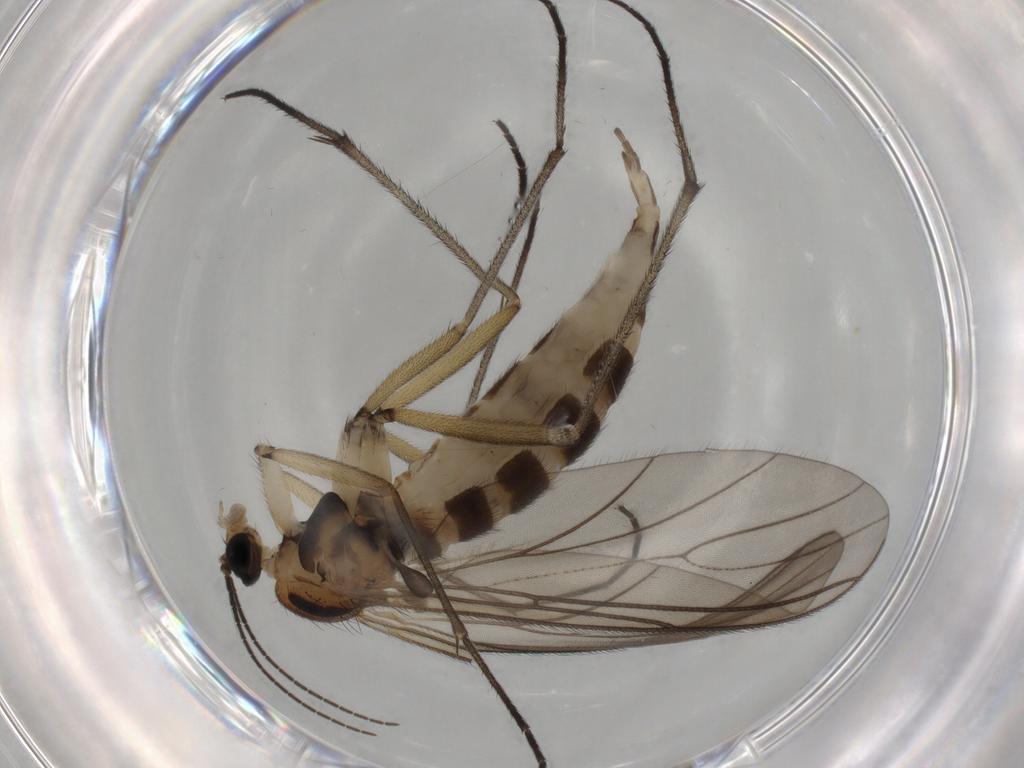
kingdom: Animalia
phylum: Arthropoda
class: Insecta
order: Diptera
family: Sciaridae
